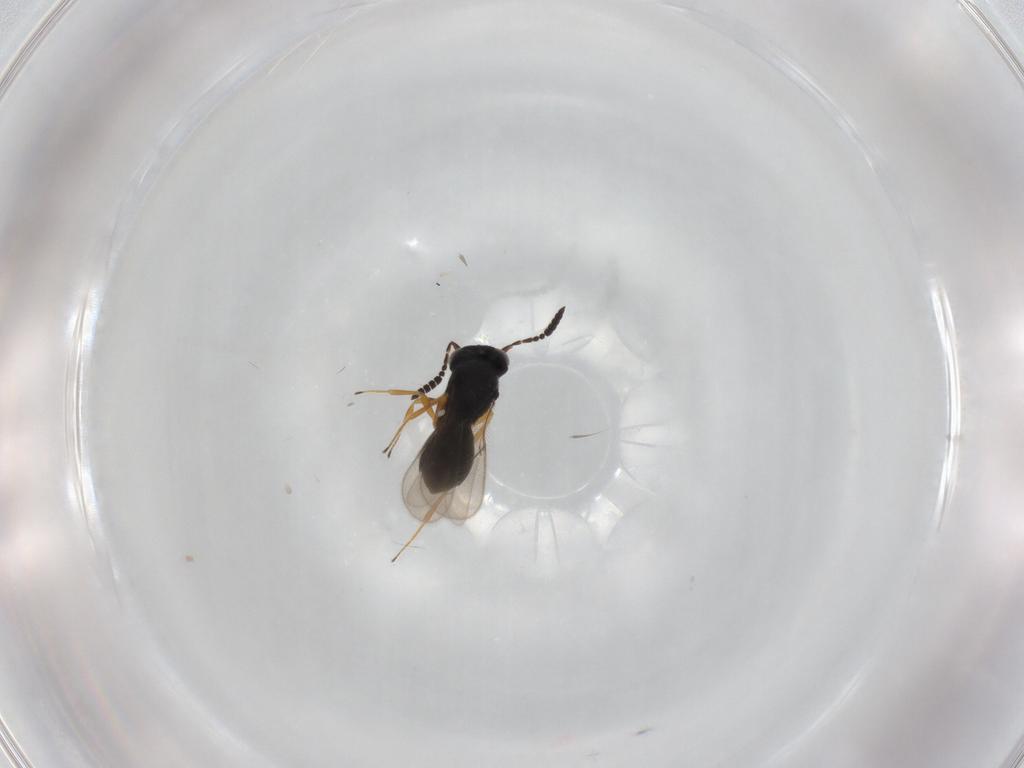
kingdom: Animalia
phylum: Arthropoda
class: Insecta
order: Hymenoptera
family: Scelionidae
